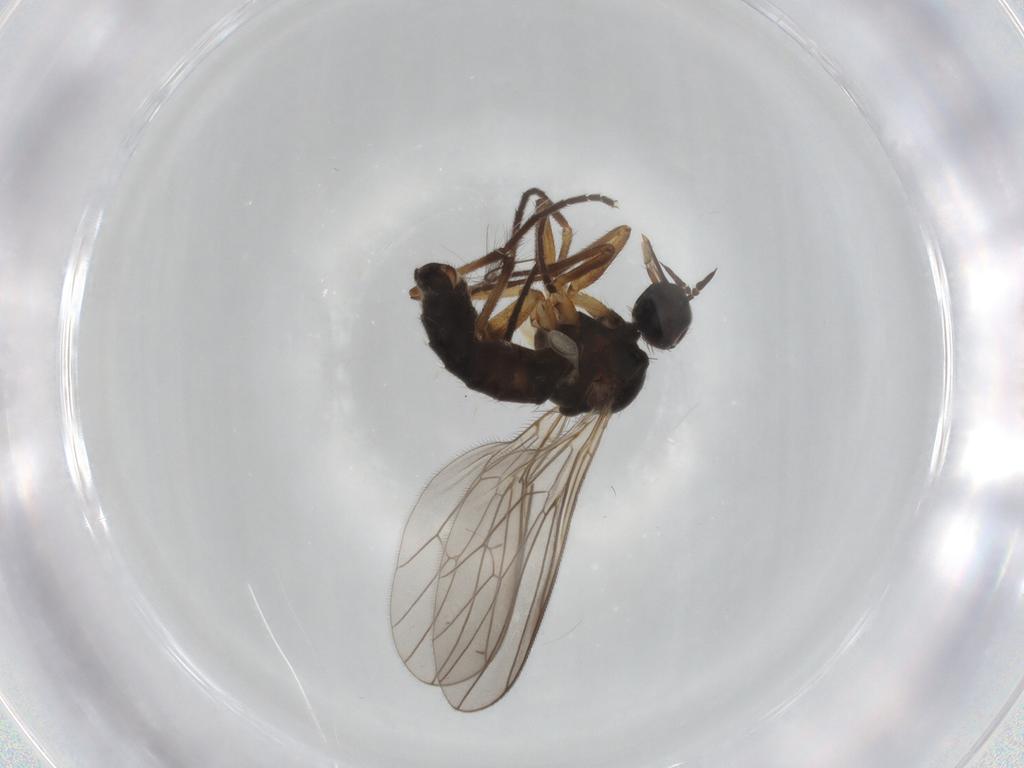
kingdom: Animalia
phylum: Arthropoda
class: Insecta
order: Diptera
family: Empididae
